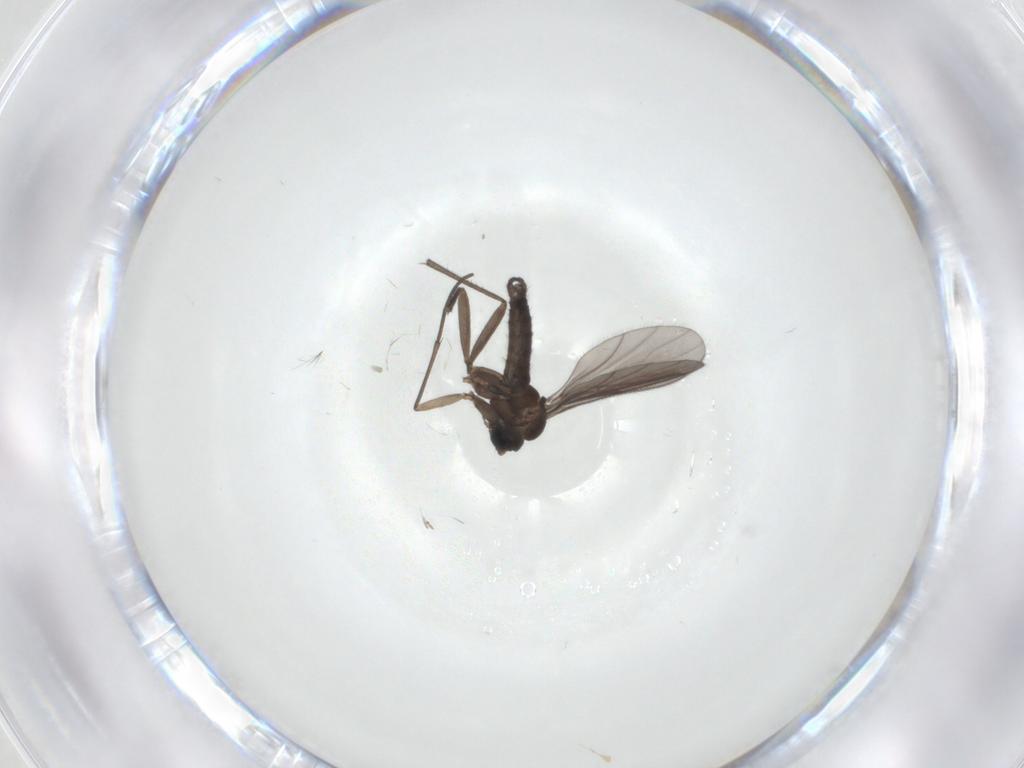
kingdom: Animalia
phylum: Arthropoda
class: Insecta
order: Diptera
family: Sciaridae
